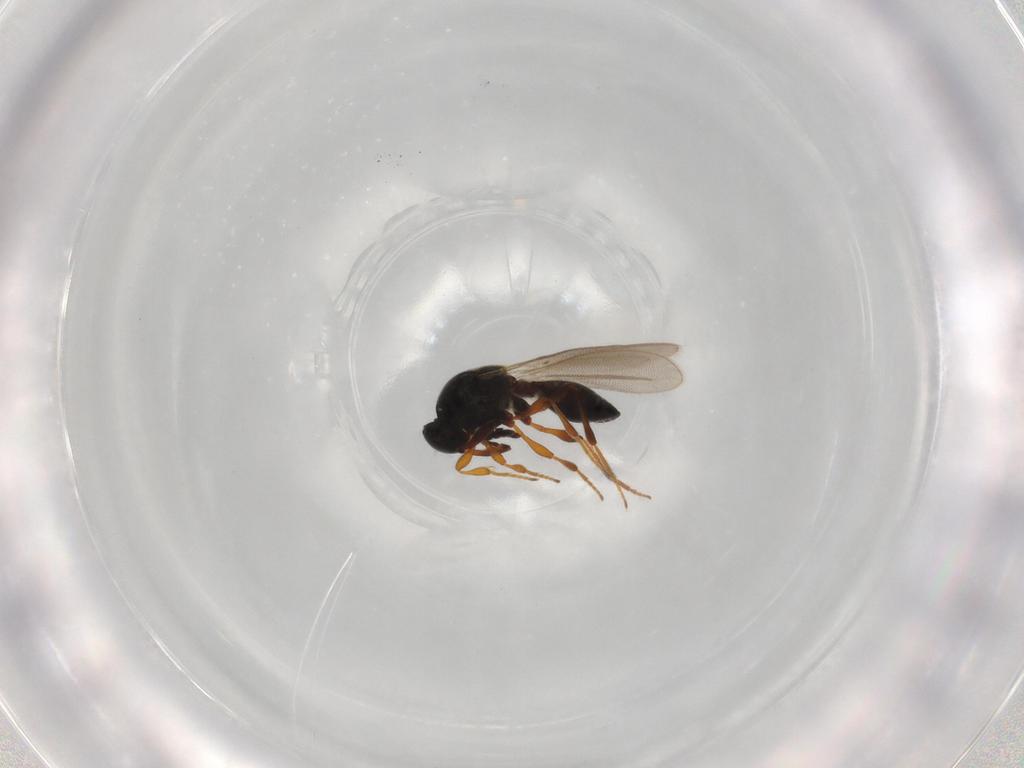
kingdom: Animalia
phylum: Arthropoda
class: Insecta
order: Hymenoptera
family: Platygastridae
